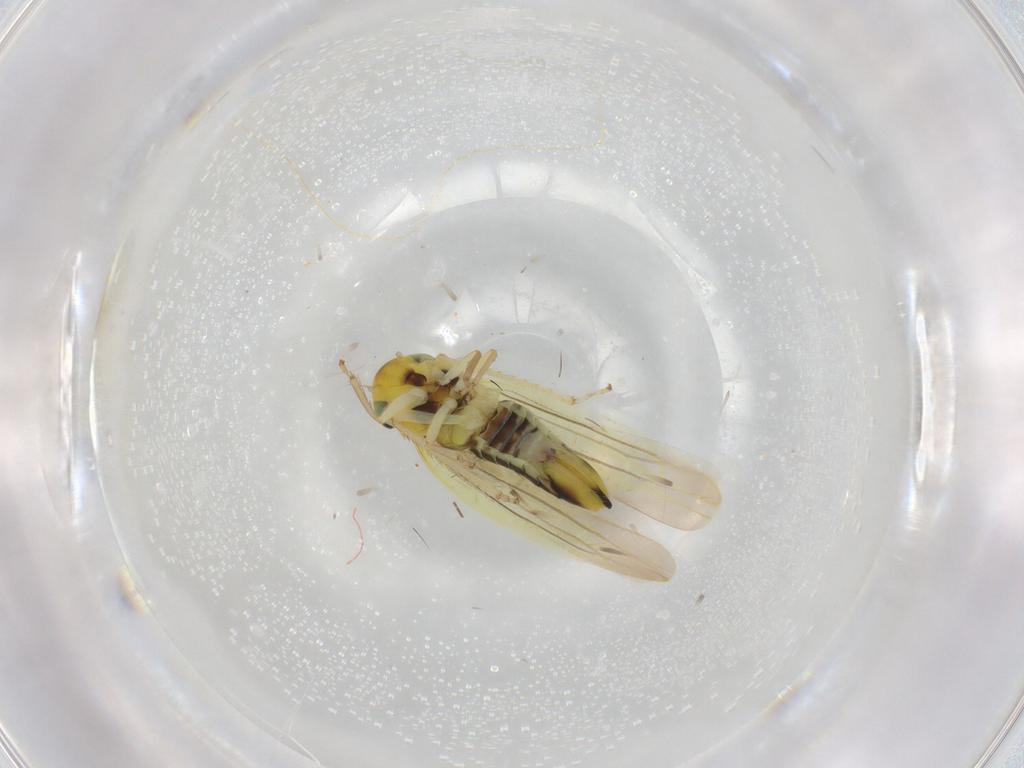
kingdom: Animalia
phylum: Arthropoda
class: Insecta
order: Hemiptera
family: Cicadellidae
